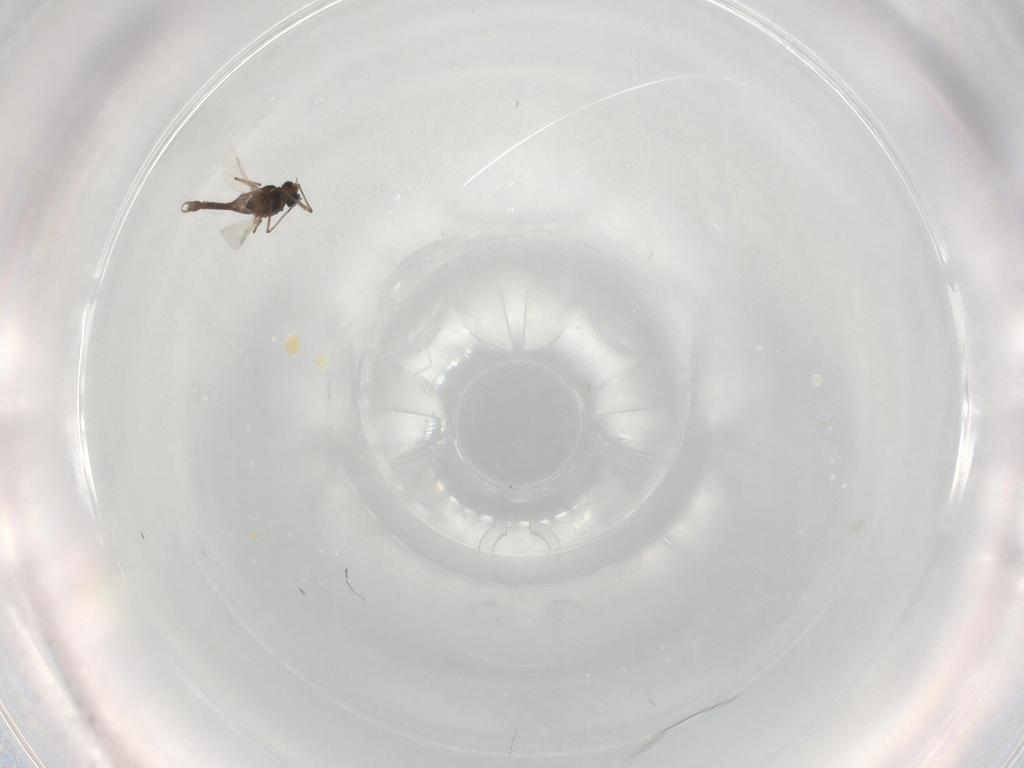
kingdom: Animalia
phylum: Arthropoda
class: Insecta
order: Diptera
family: Chironomidae
